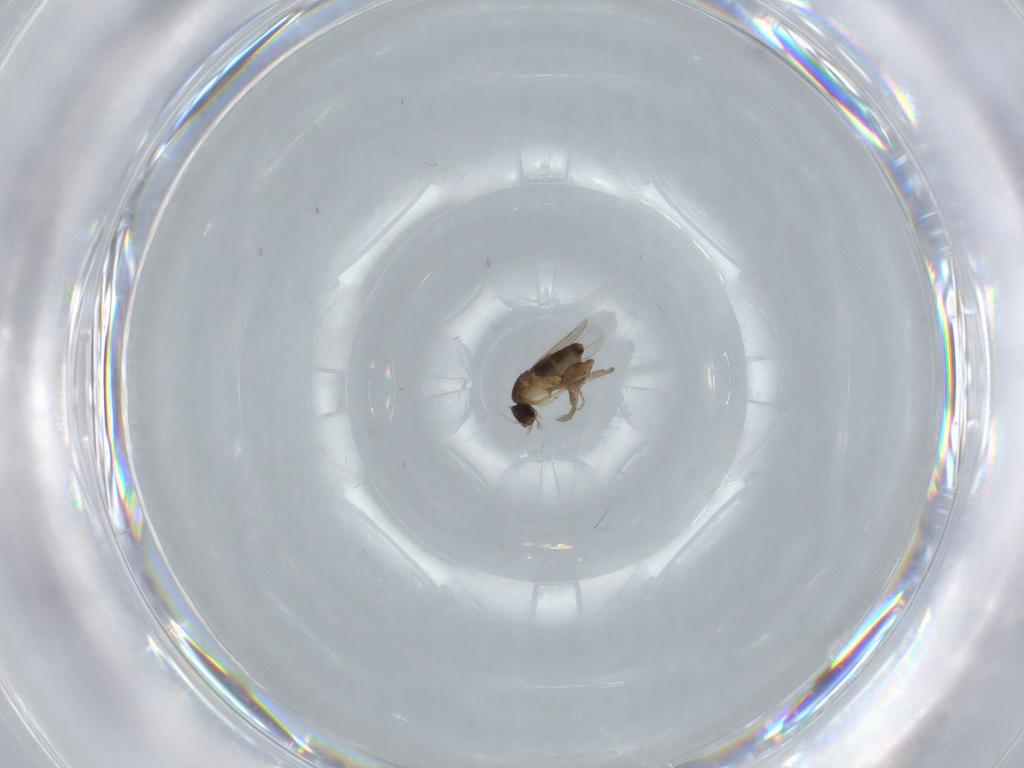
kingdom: Animalia
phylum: Arthropoda
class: Insecta
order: Diptera
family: Phoridae
